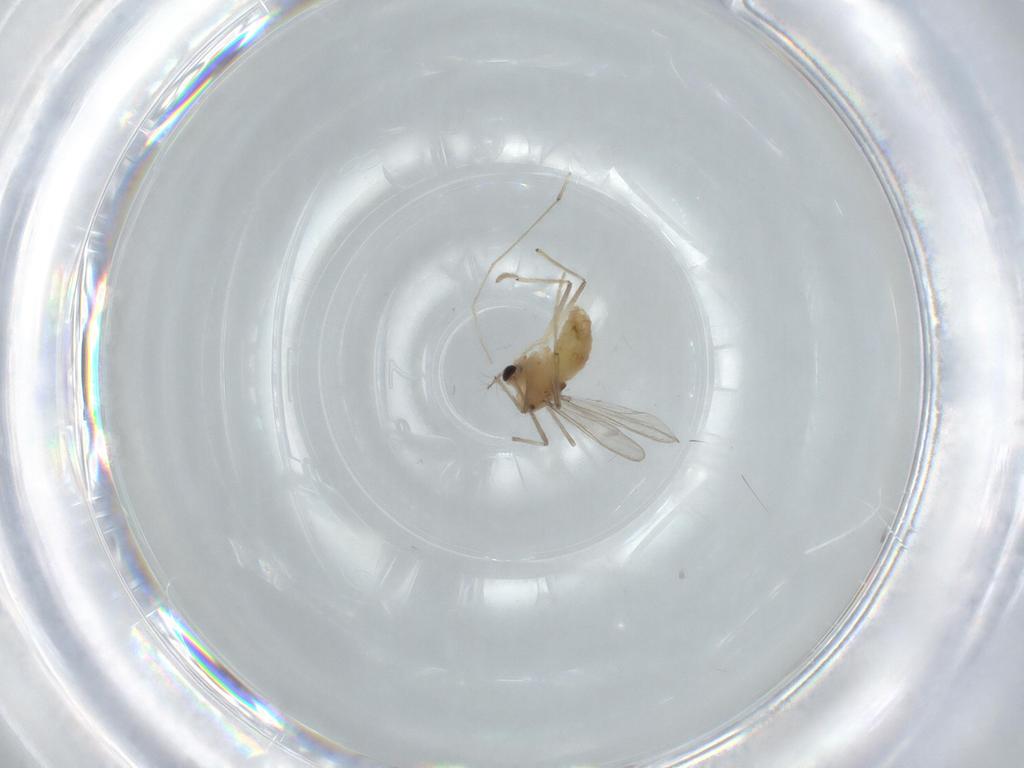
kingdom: Animalia
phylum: Arthropoda
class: Insecta
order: Diptera
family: Chironomidae
